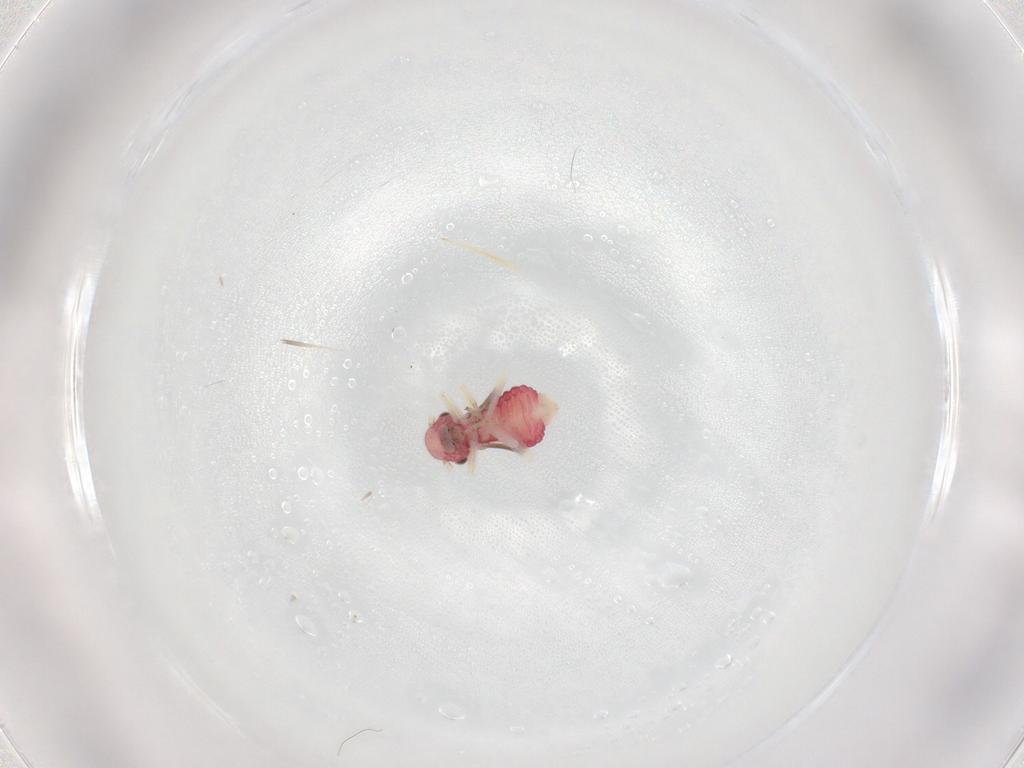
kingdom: Animalia
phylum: Arthropoda
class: Insecta
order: Psocodea
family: Caeciliusidae
